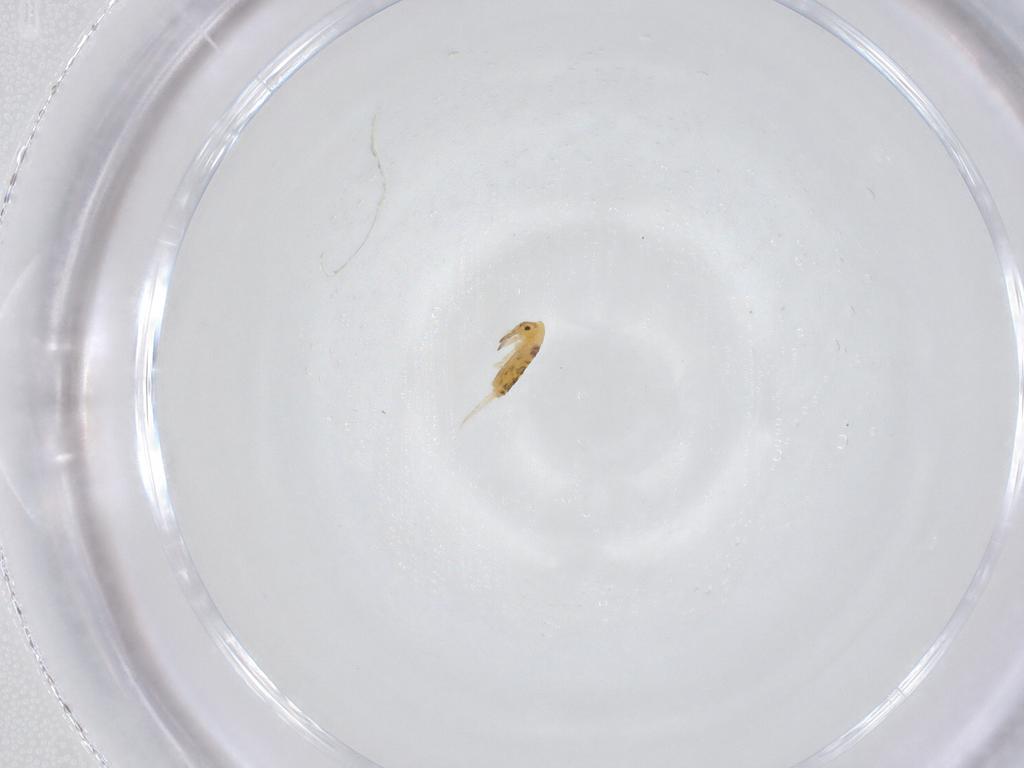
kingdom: Animalia
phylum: Arthropoda
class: Collembola
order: Entomobryomorpha
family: Entomobryidae
